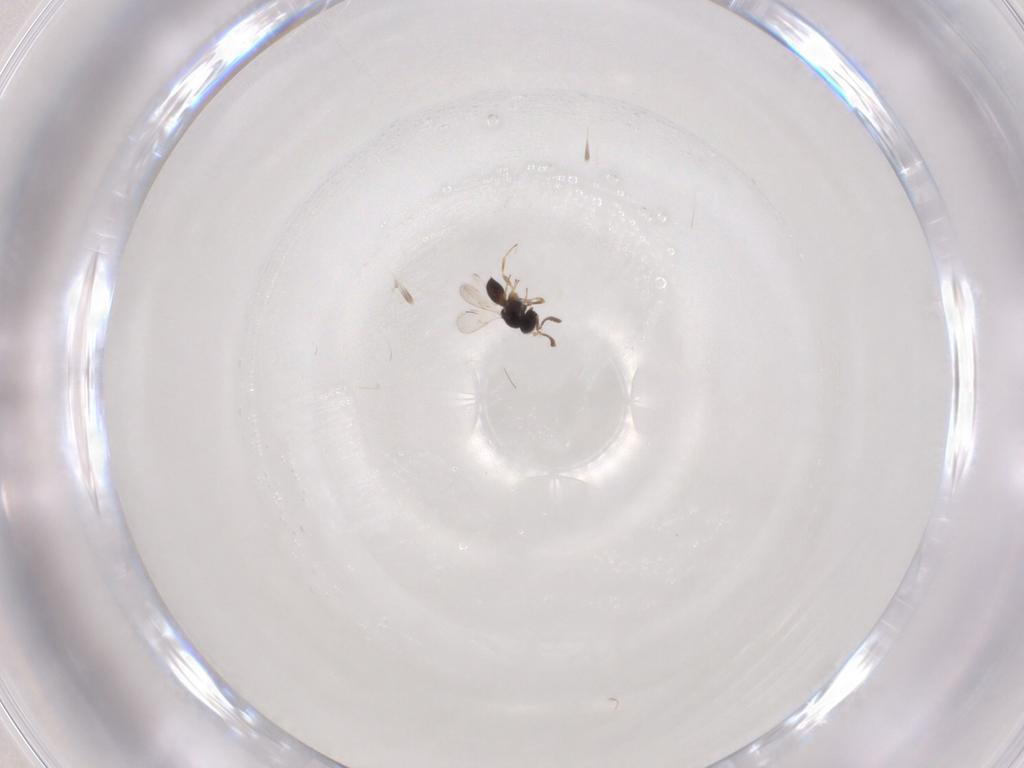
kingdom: Animalia
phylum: Arthropoda
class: Insecta
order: Hymenoptera
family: Scelionidae
